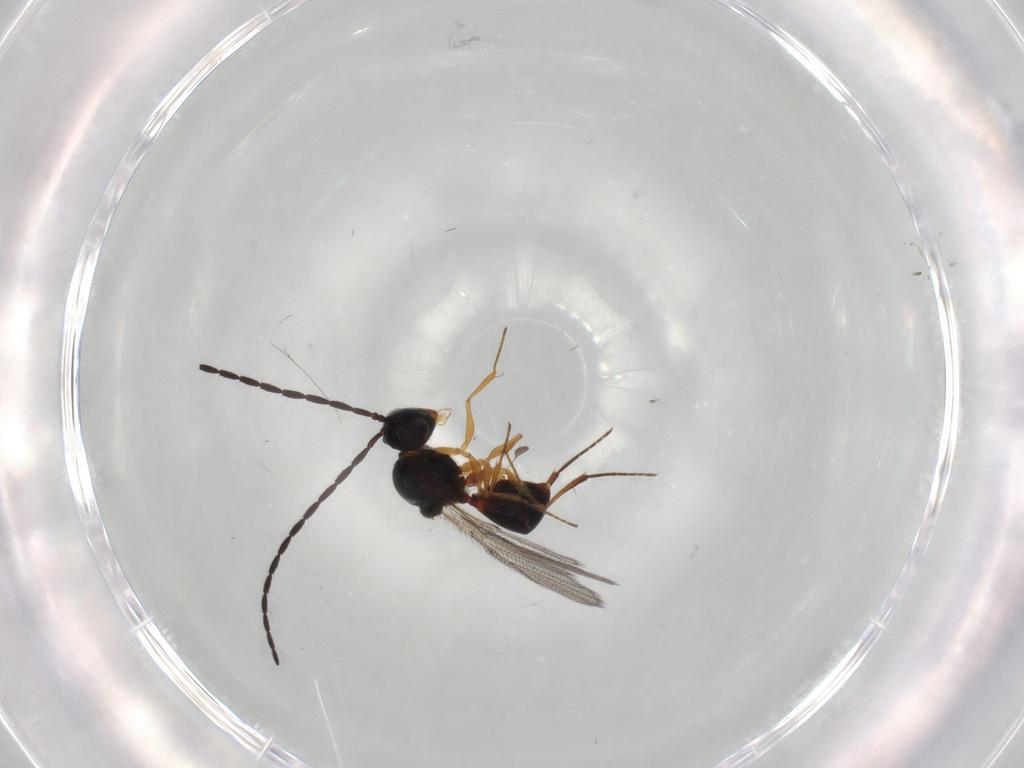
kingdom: Animalia
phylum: Arthropoda
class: Insecta
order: Hymenoptera
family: Figitidae
